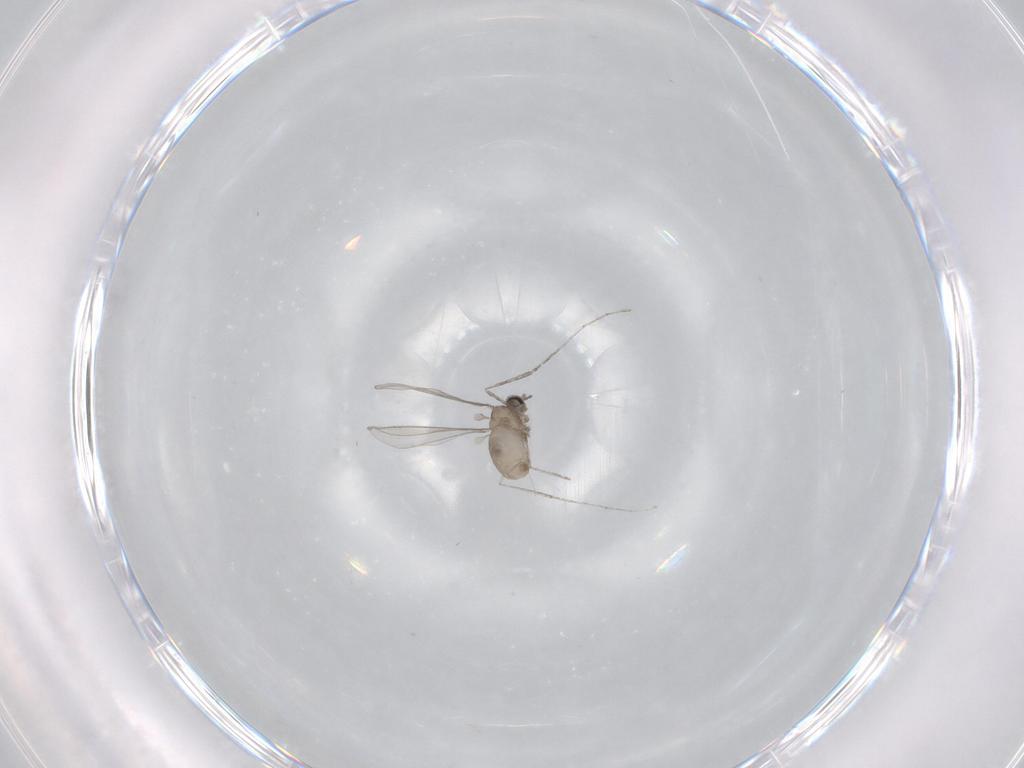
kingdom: Animalia
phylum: Arthropoda
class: Insecta
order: Diptera
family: Cecidomyiidae
